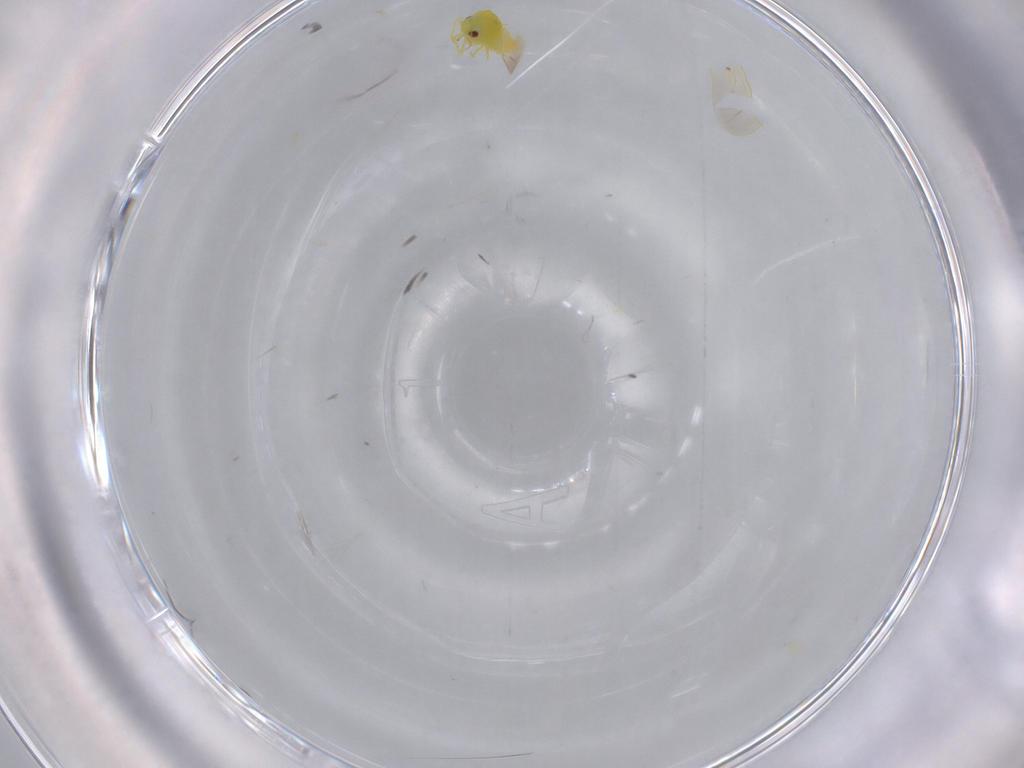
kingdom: Animalia
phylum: Arthropoda
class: Insecta
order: Hemiptera
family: Aleyrodidae
